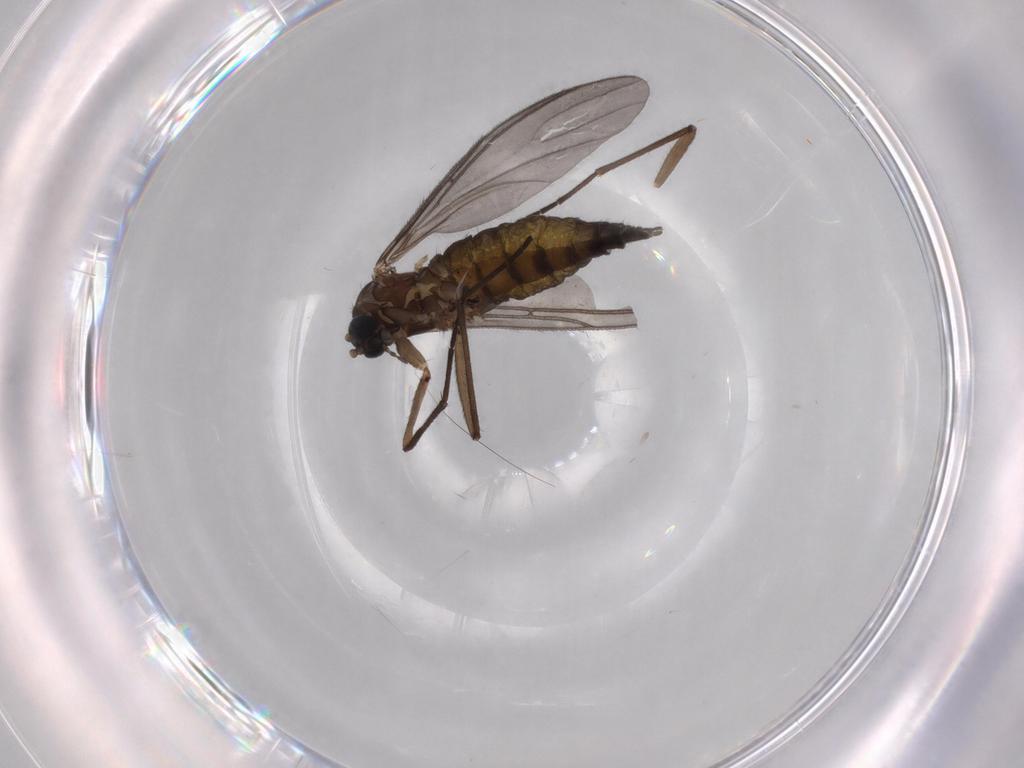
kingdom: Animalia
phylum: Arthropoda
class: Insecta
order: Diptera
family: Sciaridae
